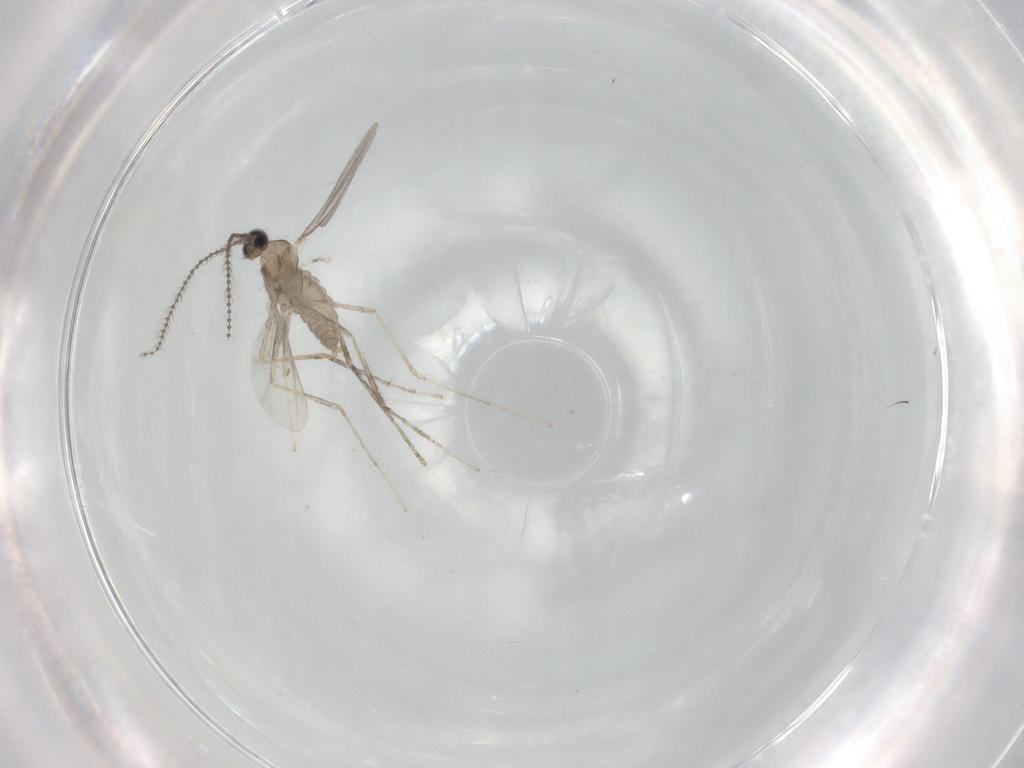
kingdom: Animalia
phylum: Arthropoda
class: Insecta
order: Diptera
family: Cecidomyiidae
